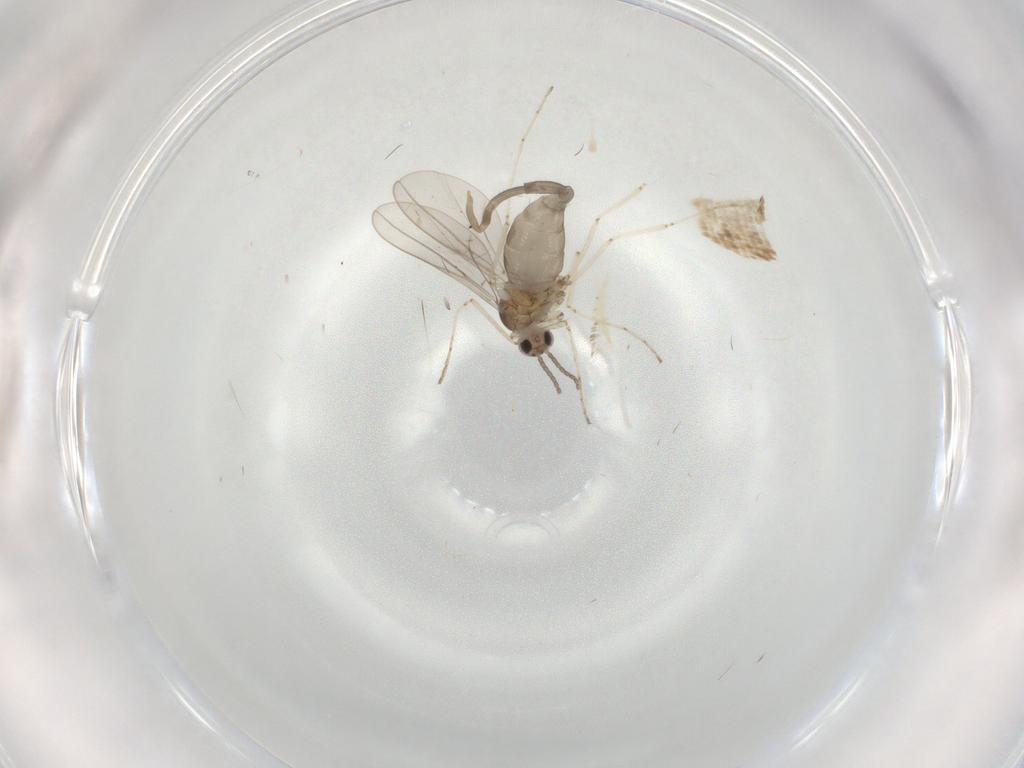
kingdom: Animalia
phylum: Arthropoda
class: Insecta
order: Diptera
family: Cecidomyiidae
